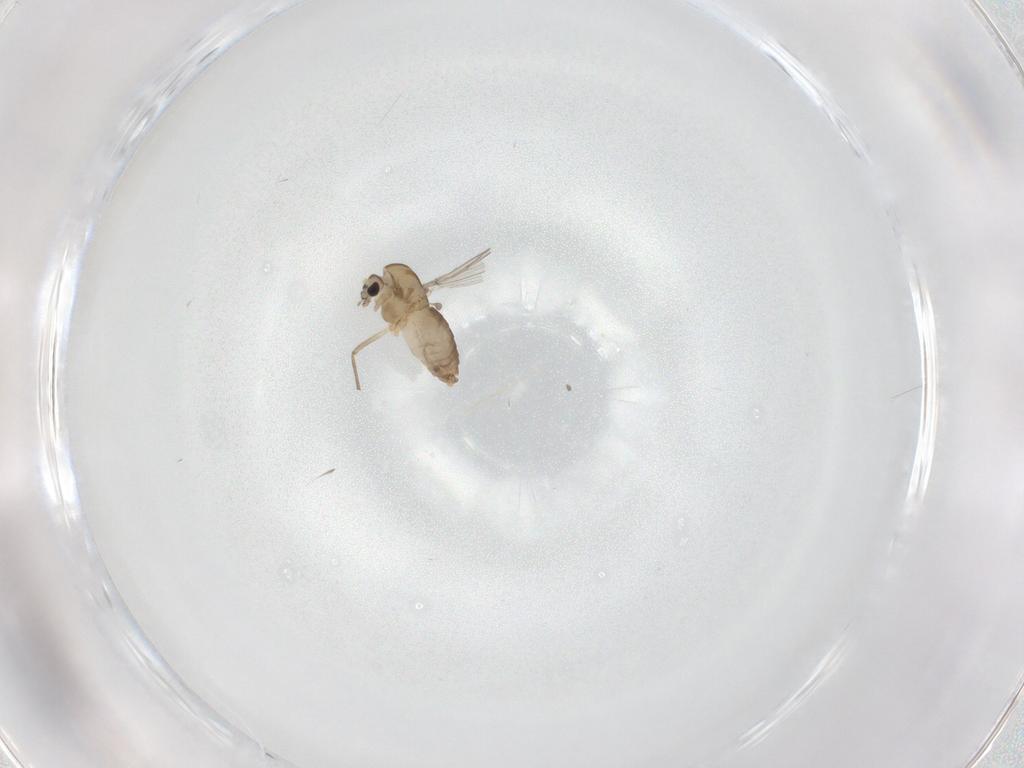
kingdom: Animalia
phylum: Arthropoda
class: Insecta
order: Diptera
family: Chironomidae
